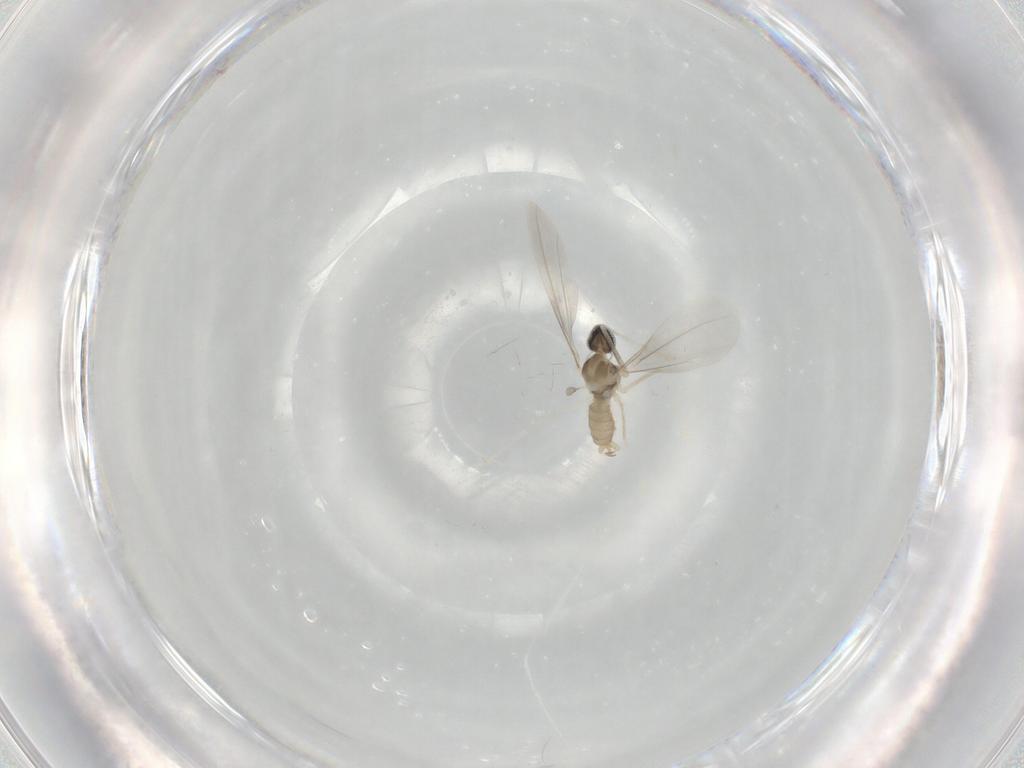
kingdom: Animalia
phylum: Arthropoda
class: Insecta
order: Diptera
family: Cecidomyiidae
